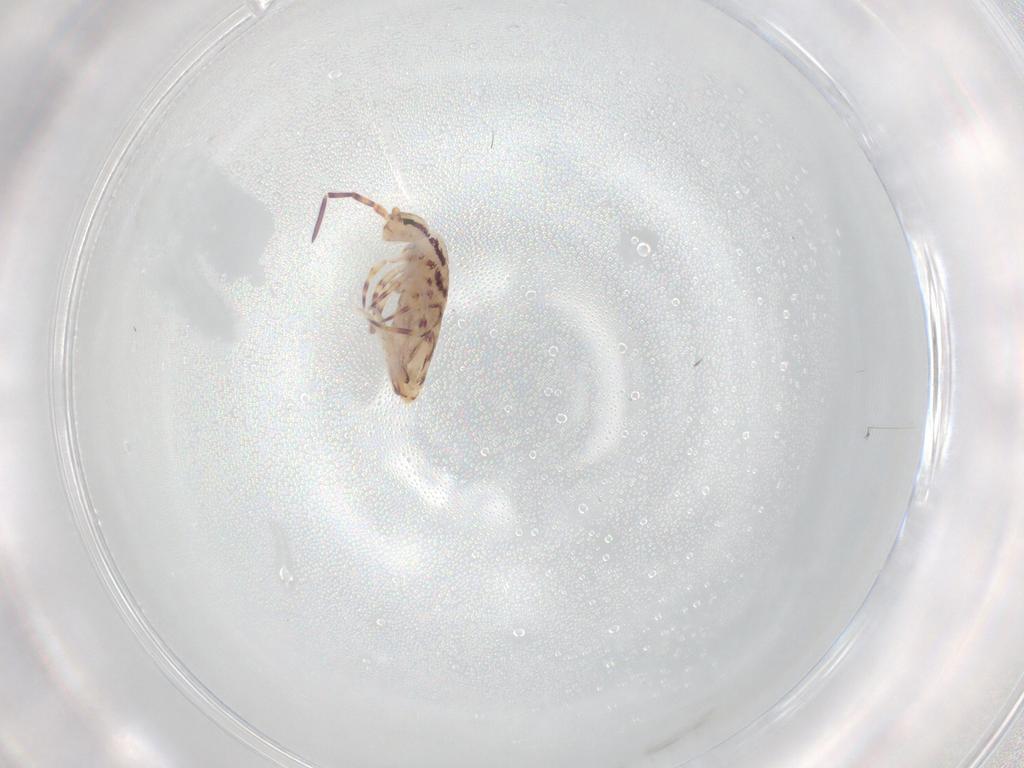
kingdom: Animalia
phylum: Arthropoda
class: Collembola
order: Entomobryomorpha
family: Entomobryidae
